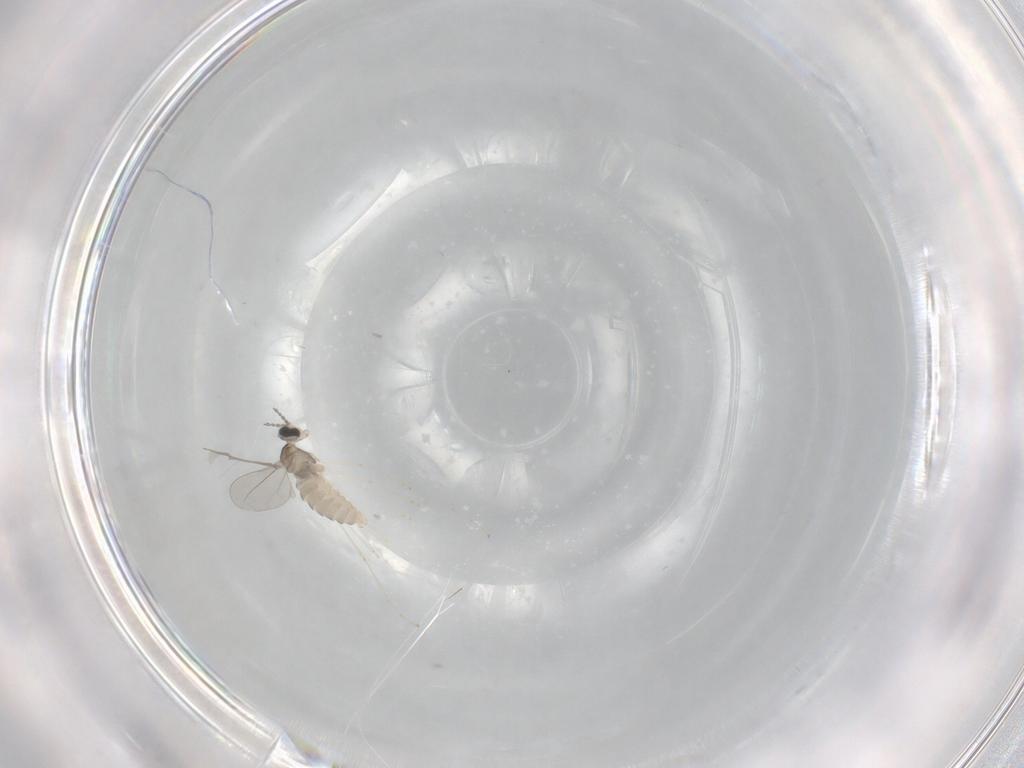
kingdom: Animalia
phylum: Arthropoda
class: Insecta
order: Diptera
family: Cecidomyiidae
